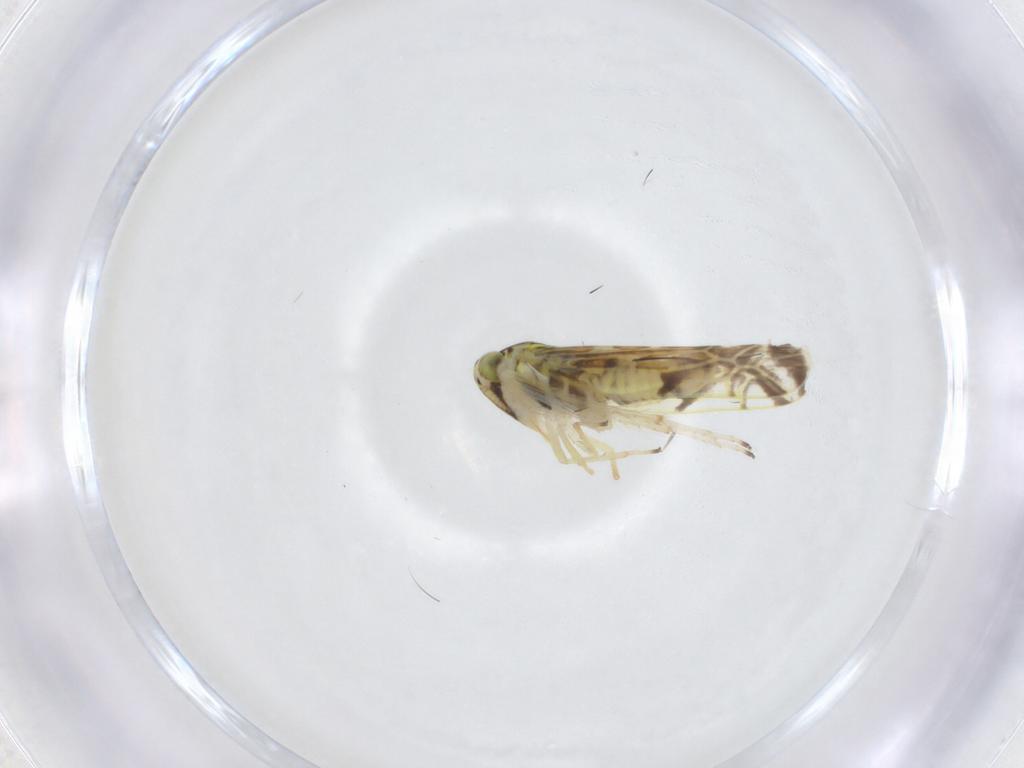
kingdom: Animalia
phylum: Arthropoda
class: Insecta
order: Hemiptera
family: Cicadellidae
